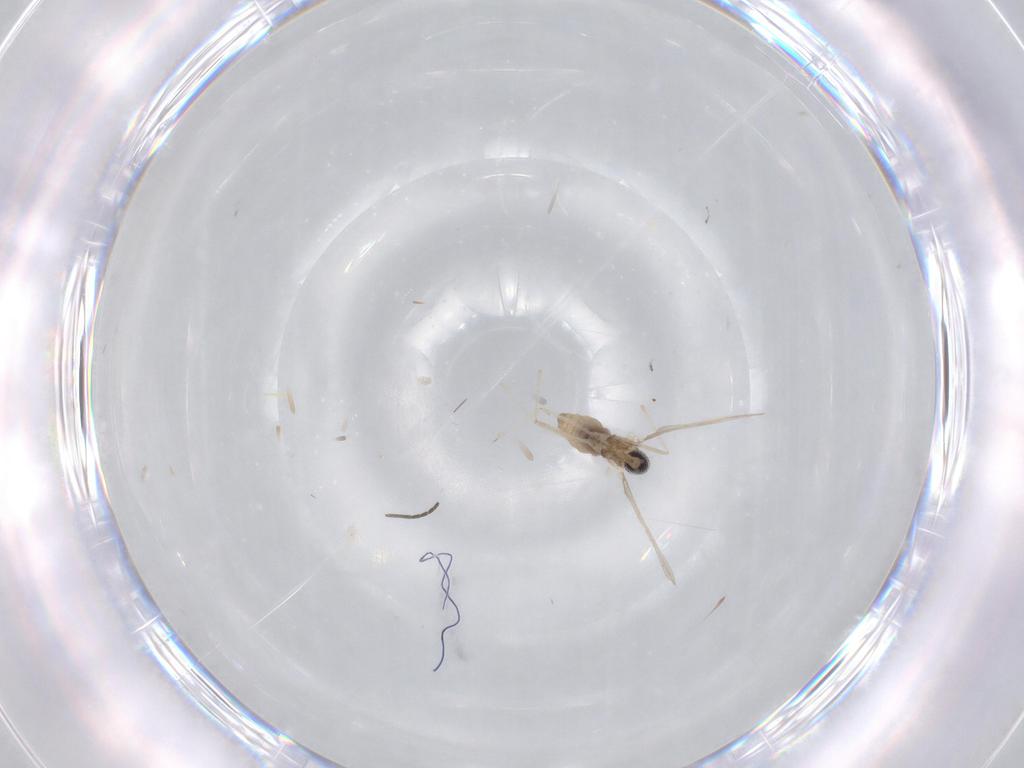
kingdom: Animalia
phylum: Arthropoda
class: Insecta
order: Diptera
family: Cecidomyiidae
